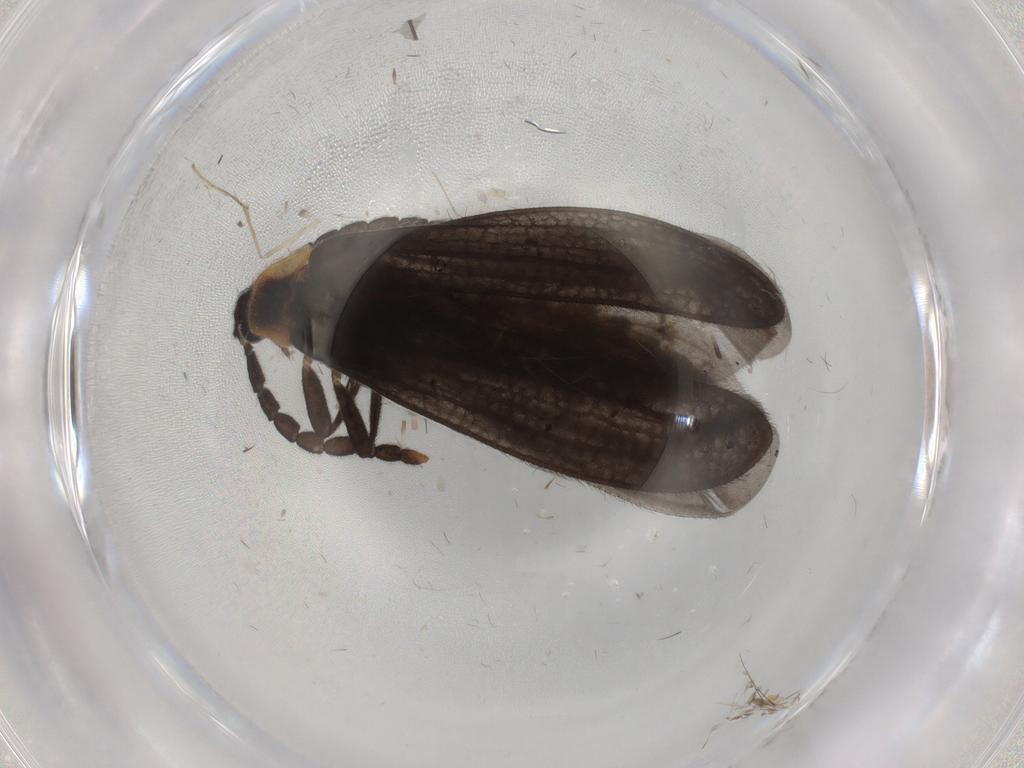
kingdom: Animalia
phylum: Arthropoda
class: Insecta
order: Coleoptera
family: Lycidae
